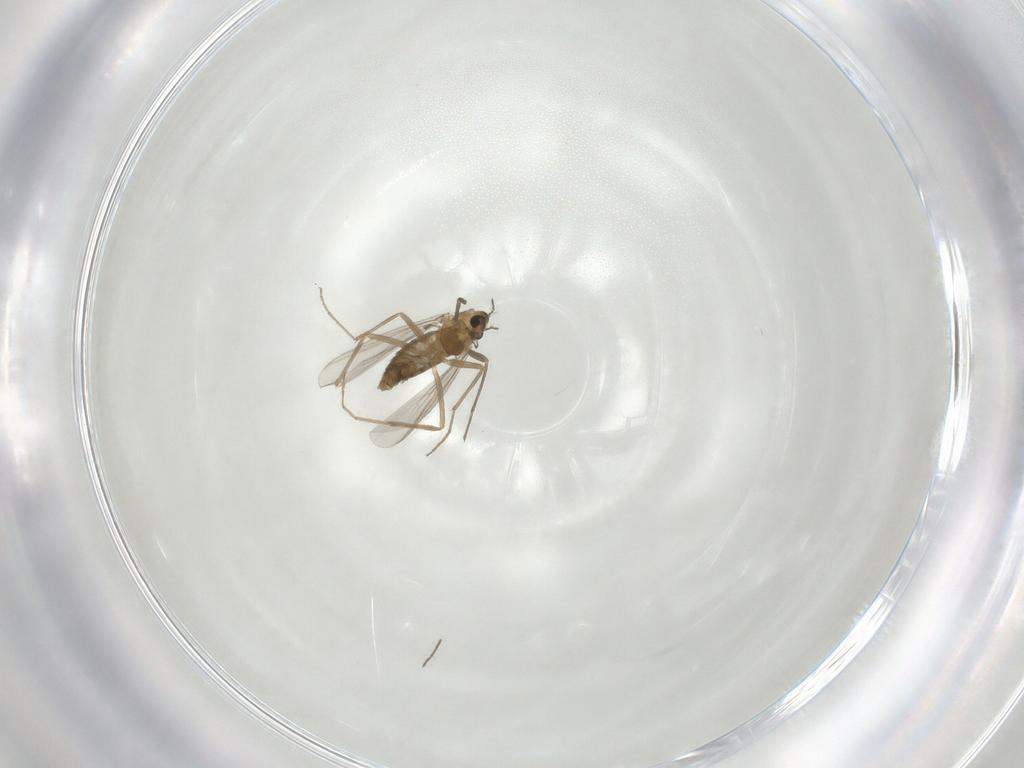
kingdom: Animalia
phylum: Arthropoda
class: Insecta
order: Diptera
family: Chironomidae
